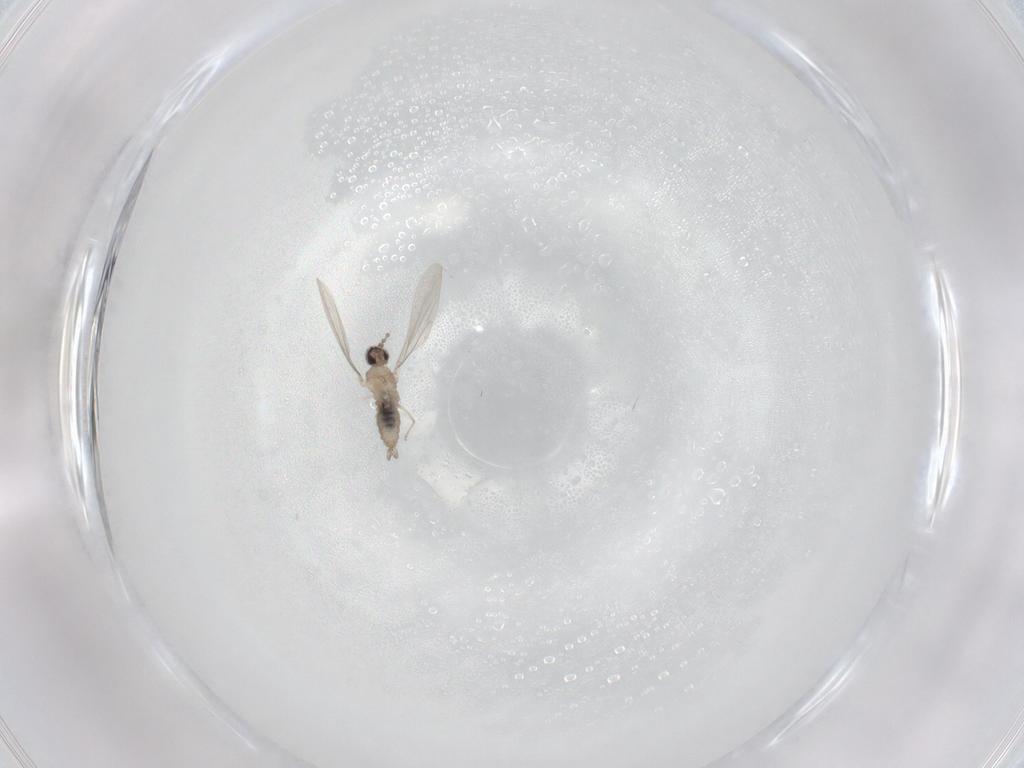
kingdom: Animalia
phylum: Arthropoda
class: Insecta
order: Diptera
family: Cecidomyiidae
